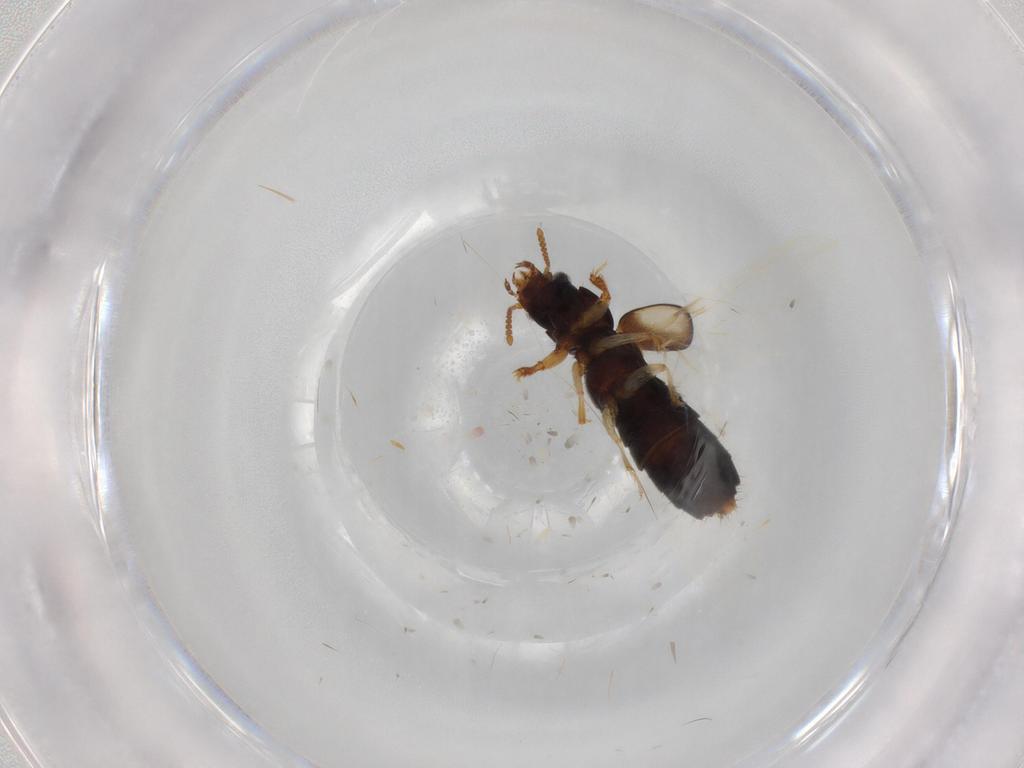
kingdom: Animalia
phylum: Arthropoda
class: Insecta
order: Coleoptera
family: Staphylinidae
